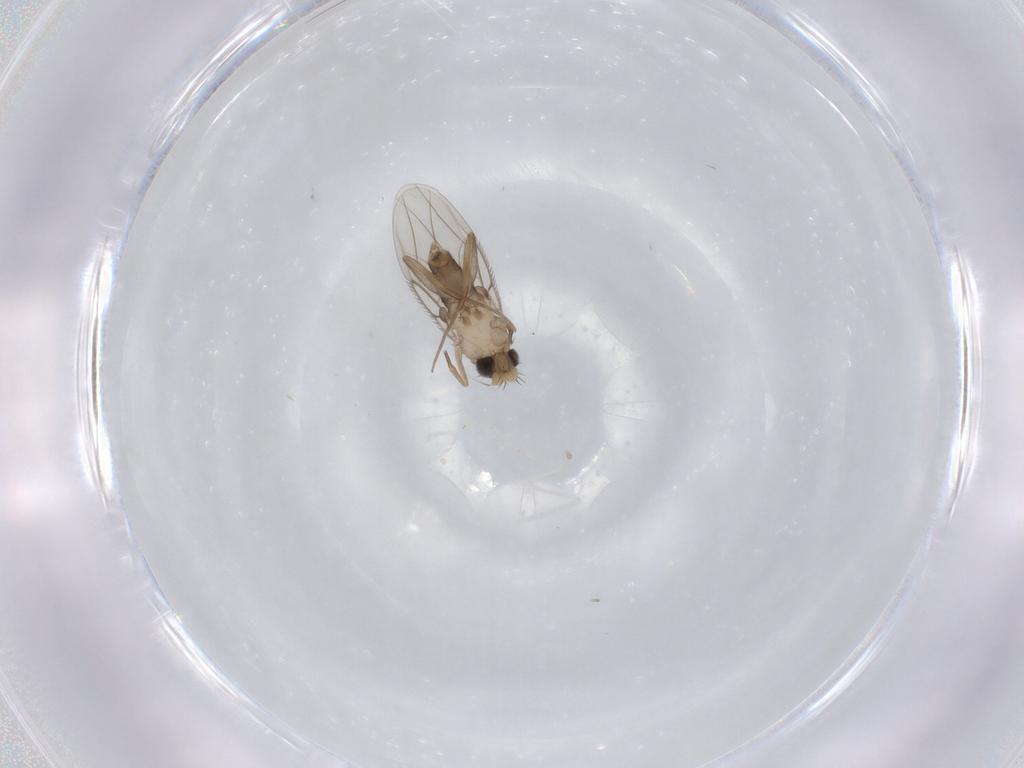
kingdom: Animalia
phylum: Arthropoda
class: Insecta
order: Diptera
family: Phoridae
